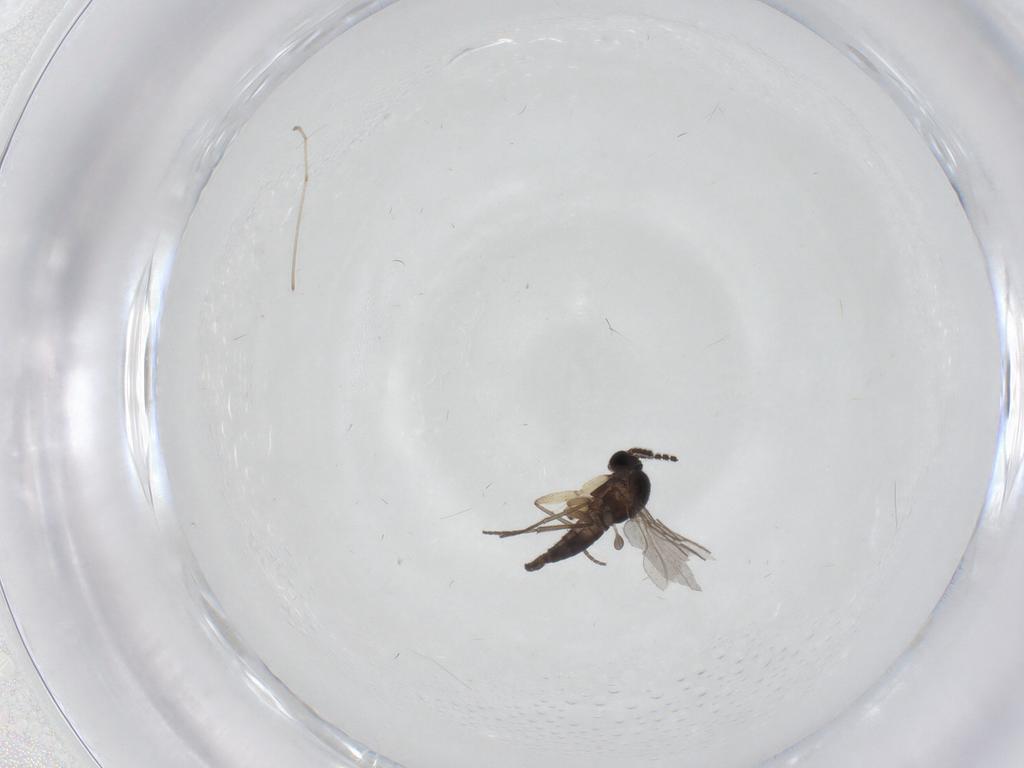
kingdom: Animalia
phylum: Arthropoda
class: Insecta
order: Diptera
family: Sciaridae
